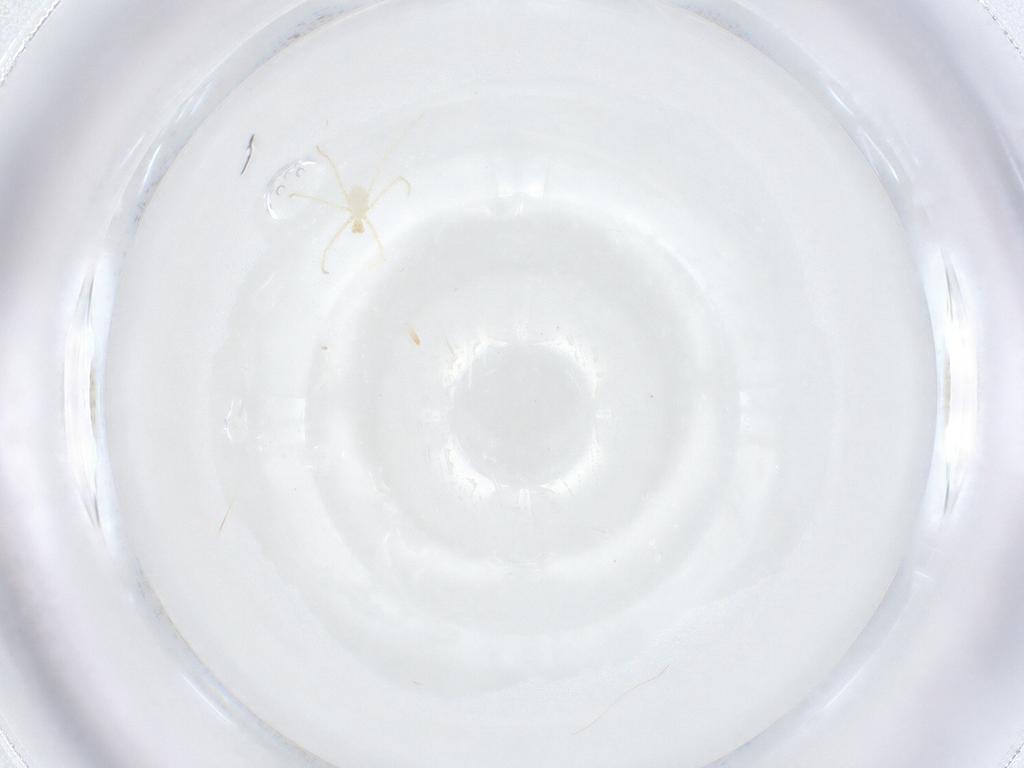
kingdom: Animalia
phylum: Arthropoda
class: Arachnida
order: Trombidiformes
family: Erythraeidae
